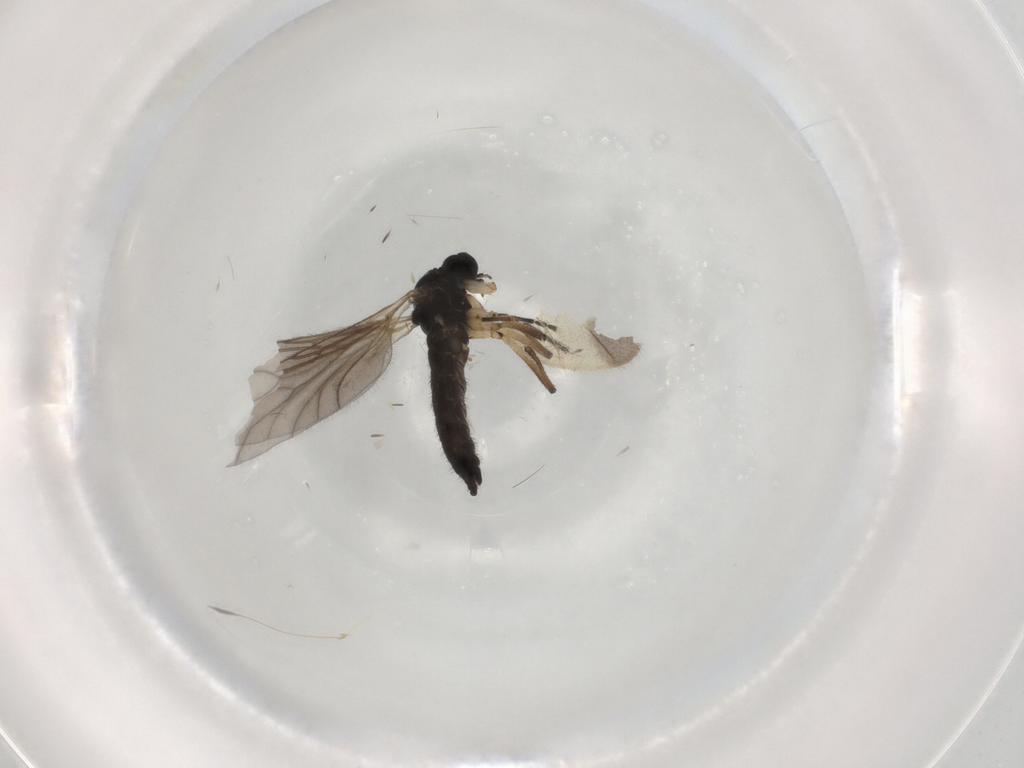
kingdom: Animalia
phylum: Arthropoda
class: Insecta
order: Diptera
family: Sciaridae
